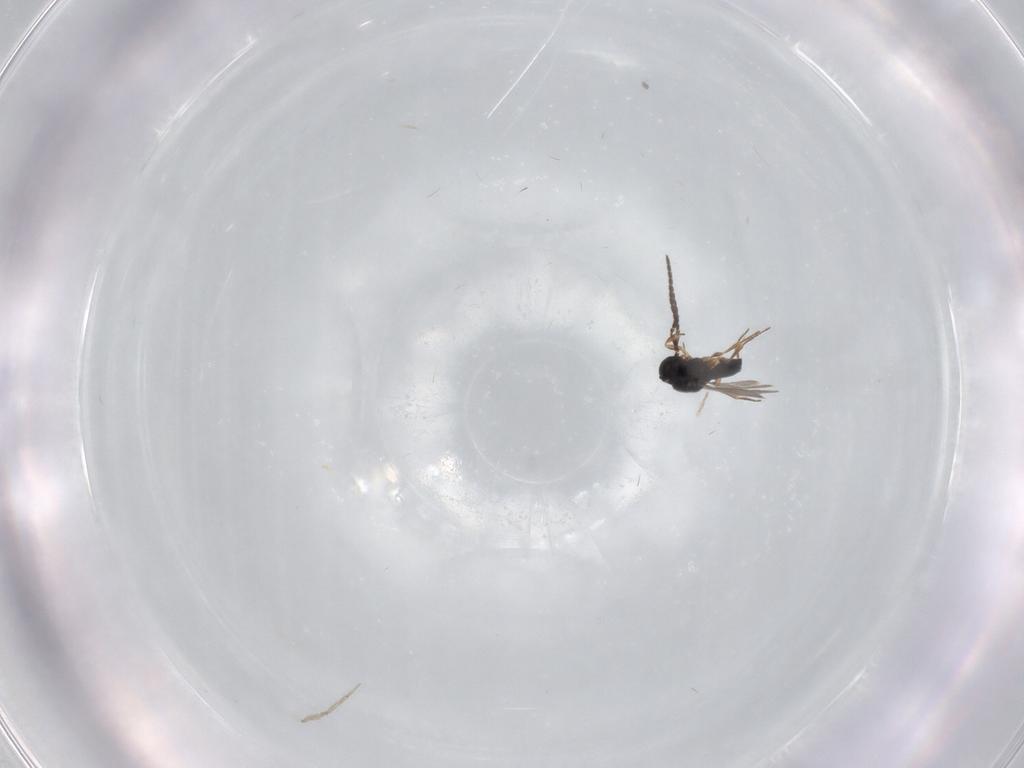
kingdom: Animalia
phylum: Arthropoda
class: Insecta
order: Hymenoptera
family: Scelionidae
